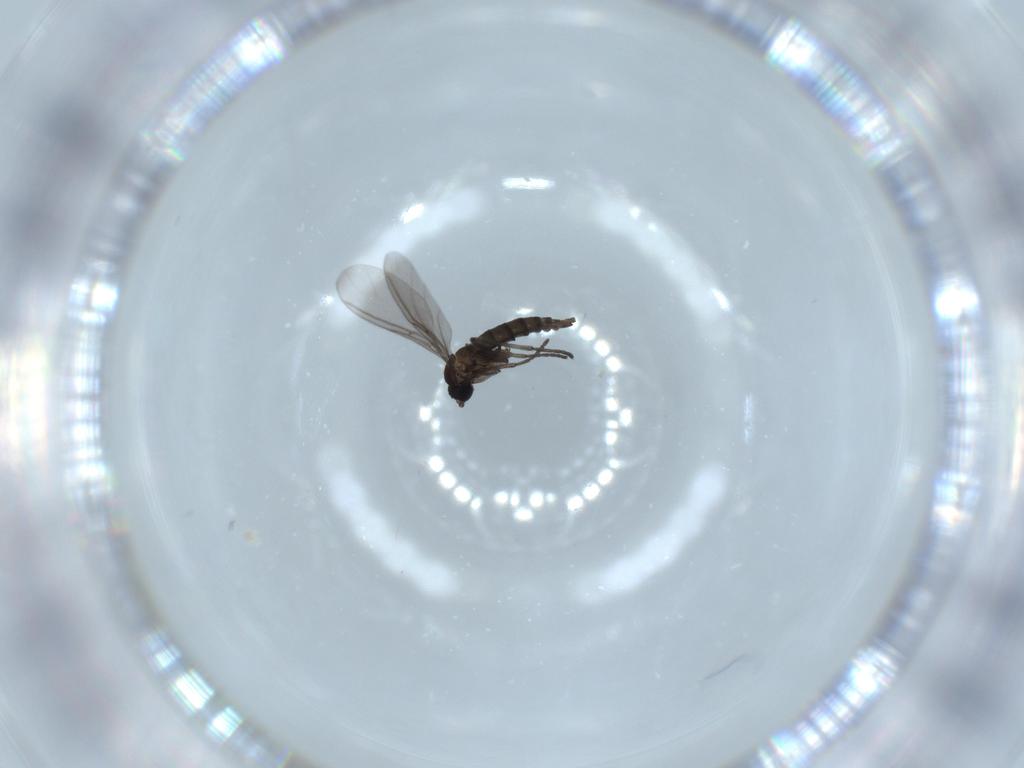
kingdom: Animalia
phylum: Arthropoda
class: Insecta
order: Diptera
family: Sciaridae
